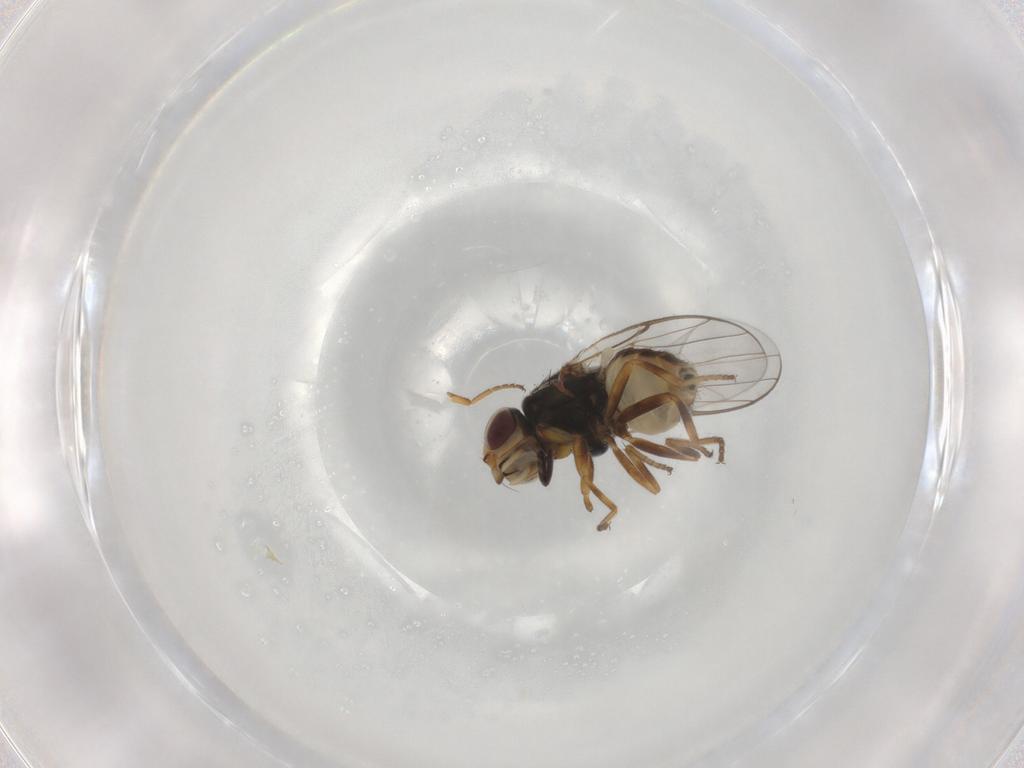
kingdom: Animalia
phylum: Arthropoda
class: Insecta
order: Diptera
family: Chloropidae
